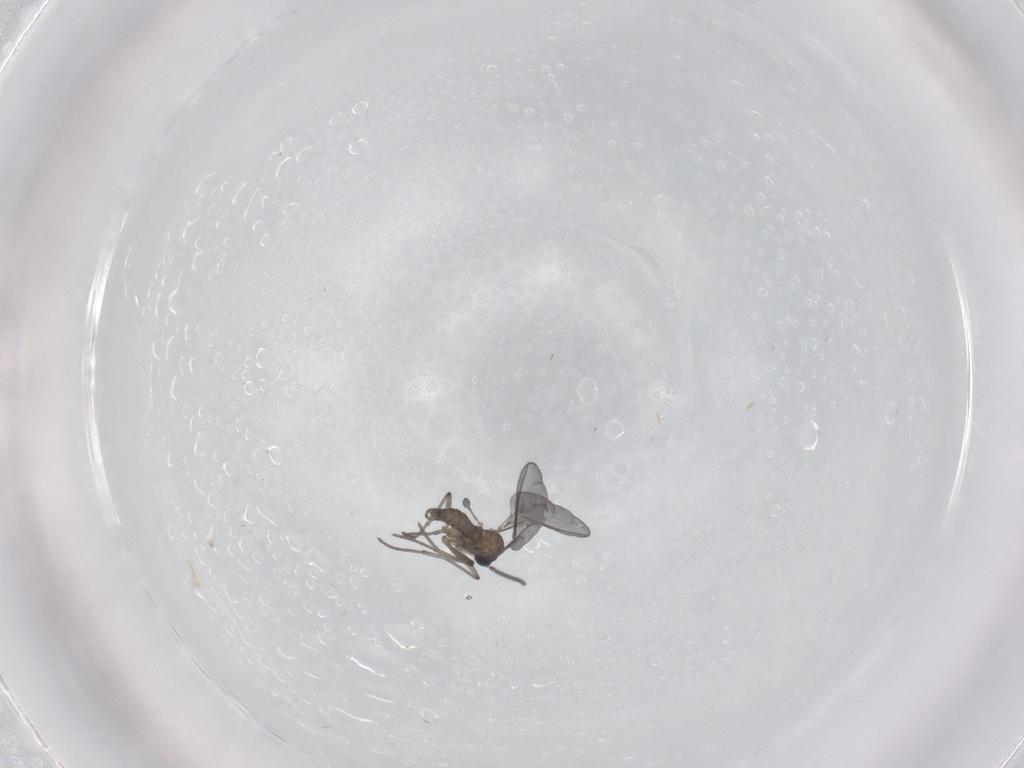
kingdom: Animalia
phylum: Arthropoda
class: Insecta
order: Diptera
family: Sciaridae
